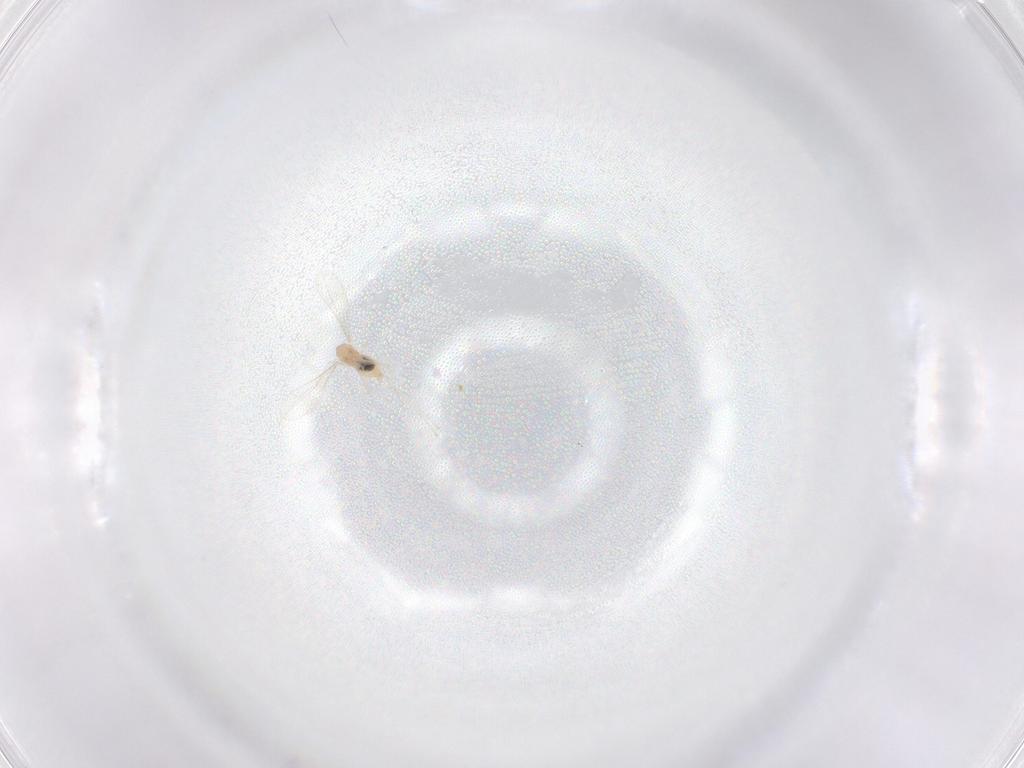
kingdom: Animalia
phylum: Arthropoda
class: Insecta
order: Diptera
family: Cecidomyiidae
